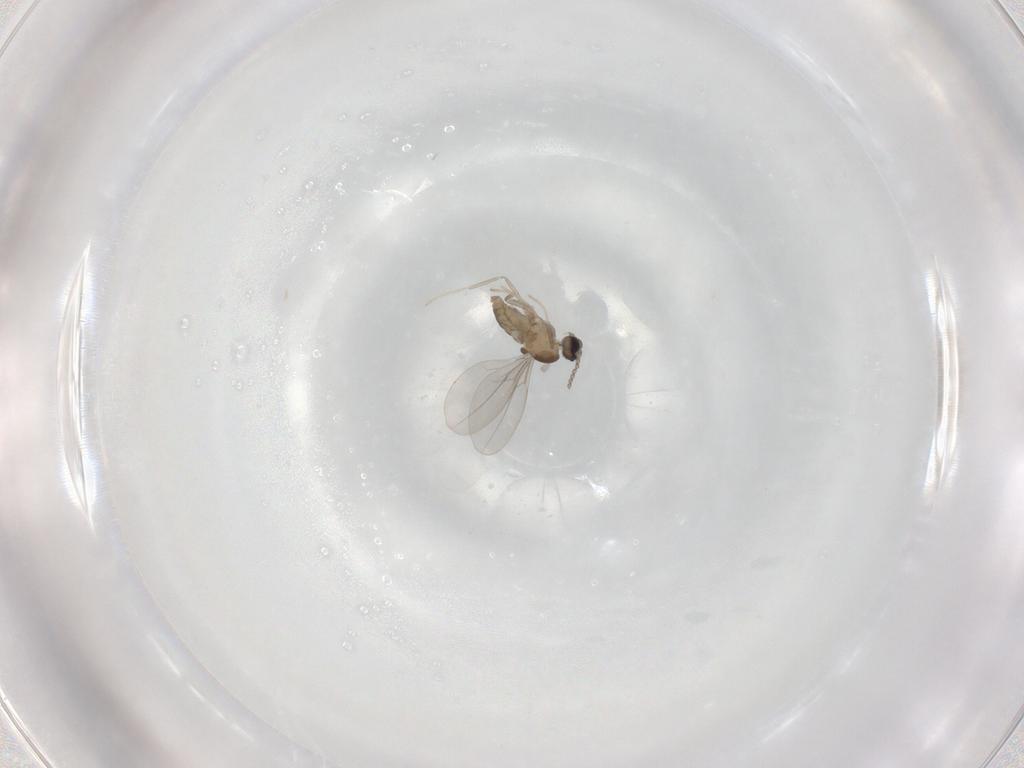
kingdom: Animalia
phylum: Arthropoda
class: Insecta
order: Diptera
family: Cecidomyiidae
